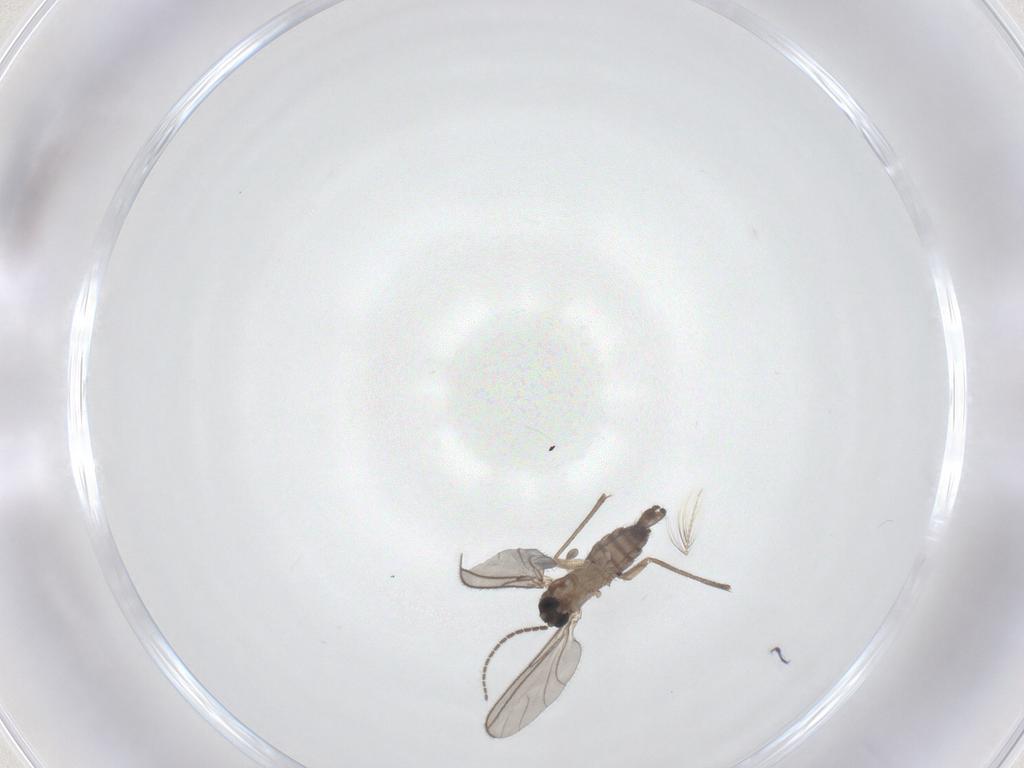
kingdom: Animalia
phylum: Arthropoda
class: Insecta
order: Diptera
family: Sciaridae
